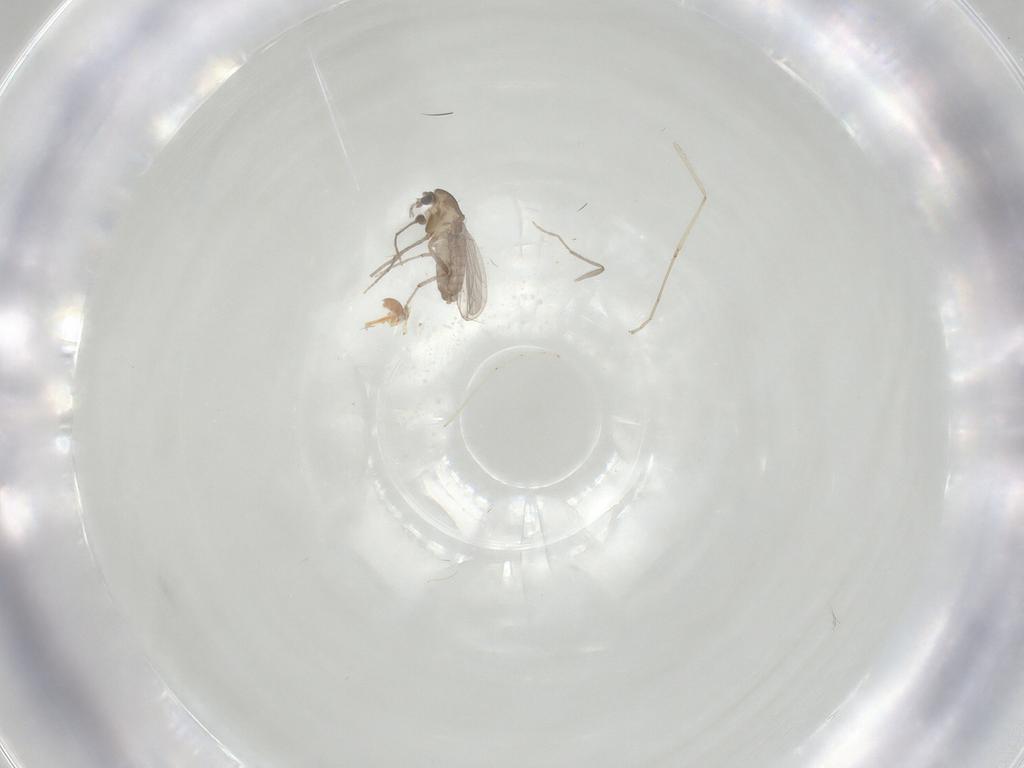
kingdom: Animalia
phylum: Arthropoda
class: Insecta
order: Diptera
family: Chironomidae
